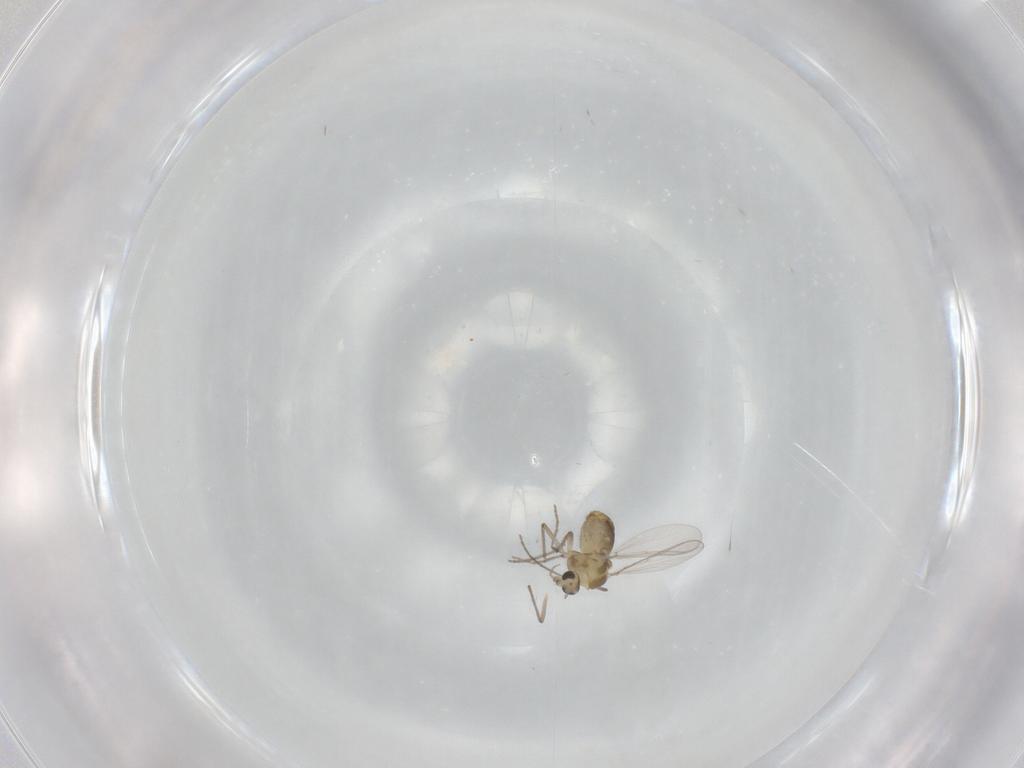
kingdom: Animalia
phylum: Arthropoda
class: Insecta
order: Diptera
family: Chironomidae
